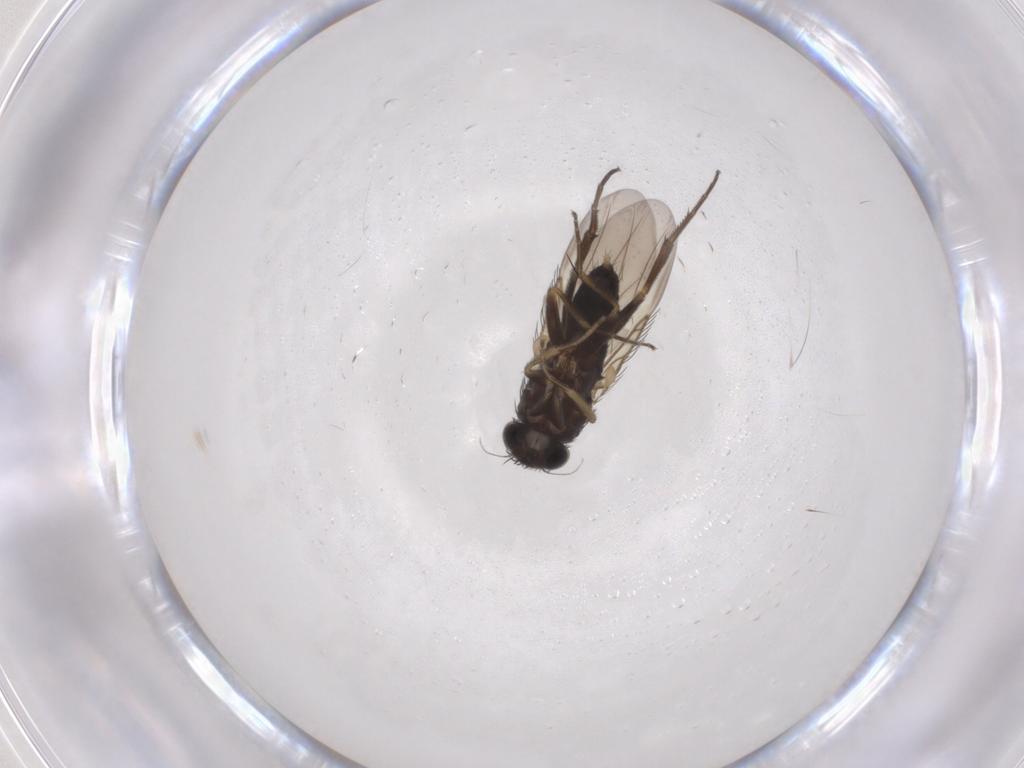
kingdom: Animalia
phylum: Arthropoda
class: Insecta
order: Diptera
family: Phoridae
